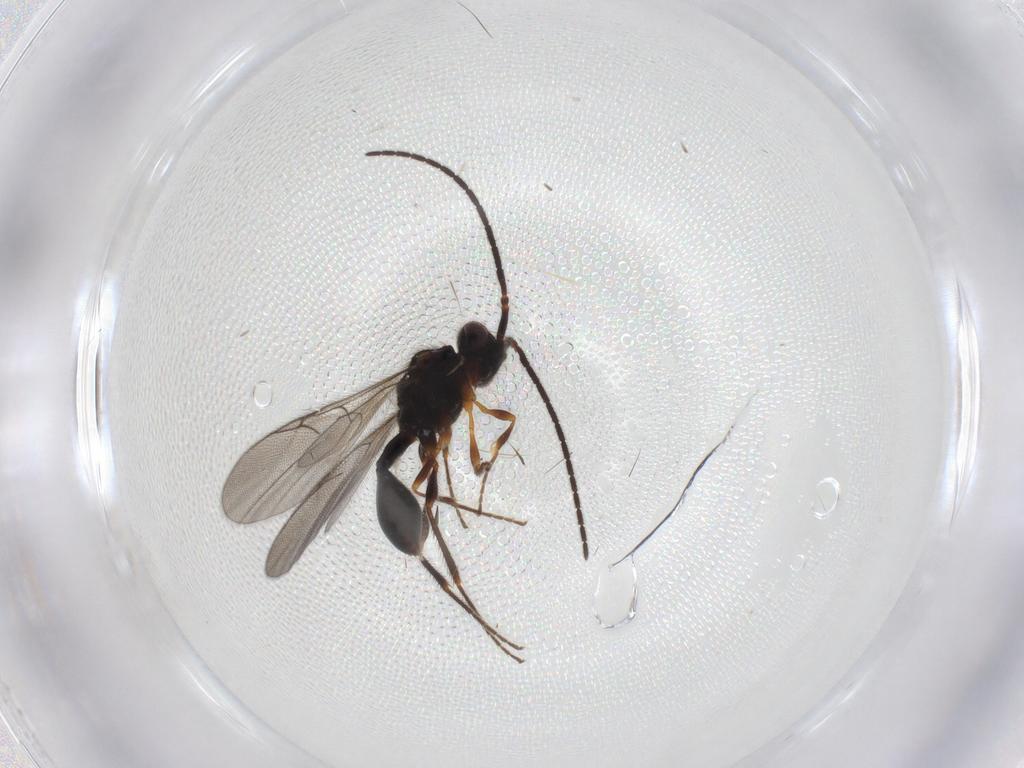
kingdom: Animalia
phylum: Arthropoda
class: Insecta
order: Hymenoptera
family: Diapriidae
